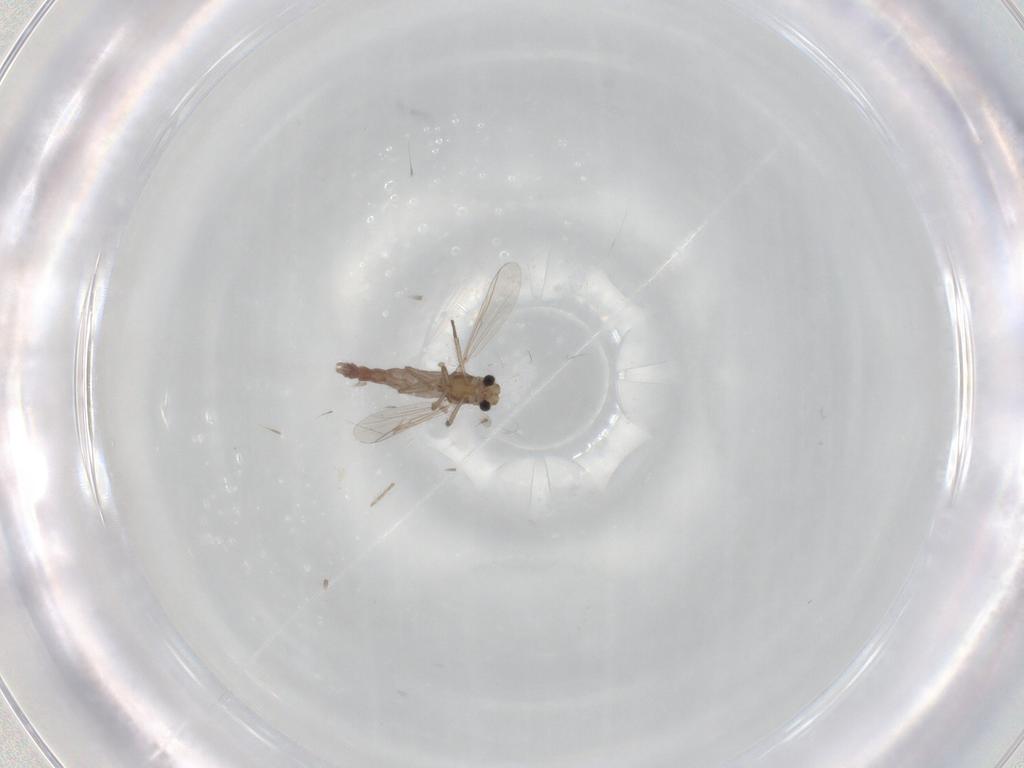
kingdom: Animalia
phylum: Arthropoda
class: Insecta
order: Diptera
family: Chironomidae
